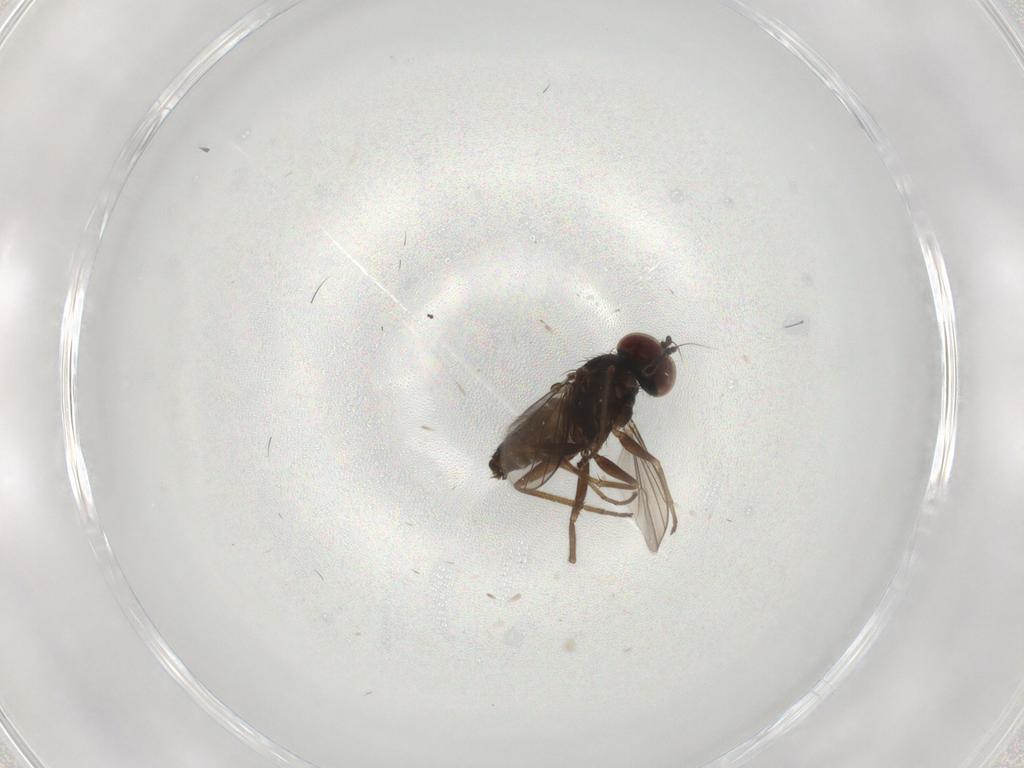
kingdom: Animalia
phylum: Arthropoda
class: Insecta
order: Diptera
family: Dolichopodidae
